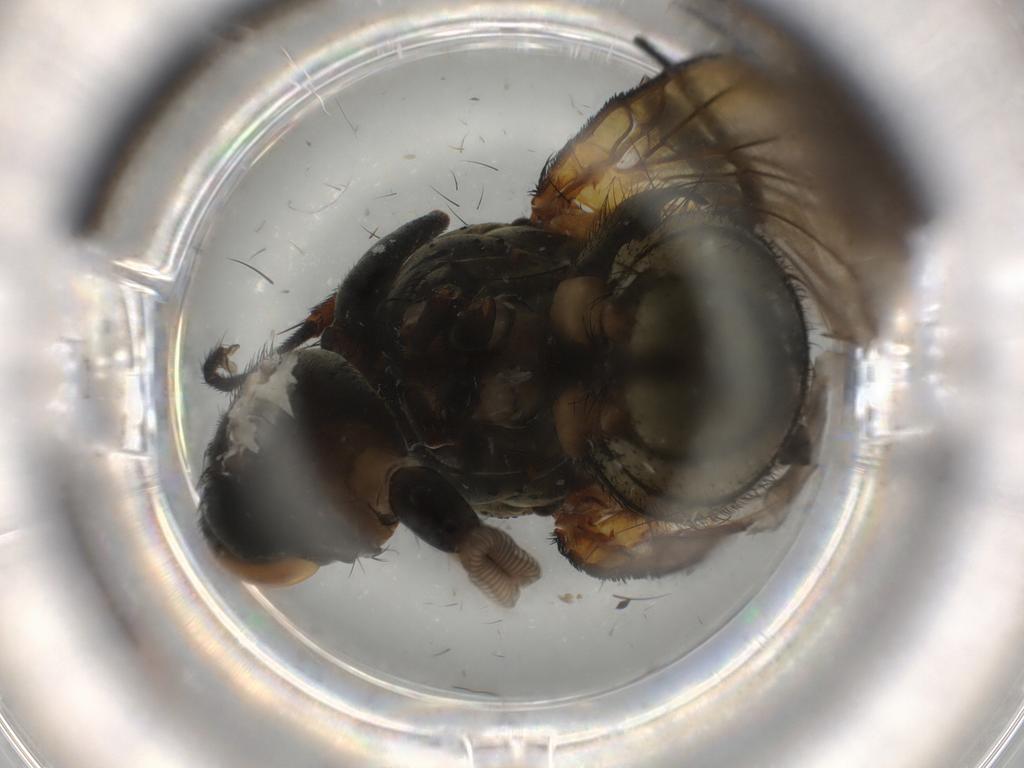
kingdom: Animalia
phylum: Arthropoda
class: Insecta
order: Diptera
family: Anthomyiidae
